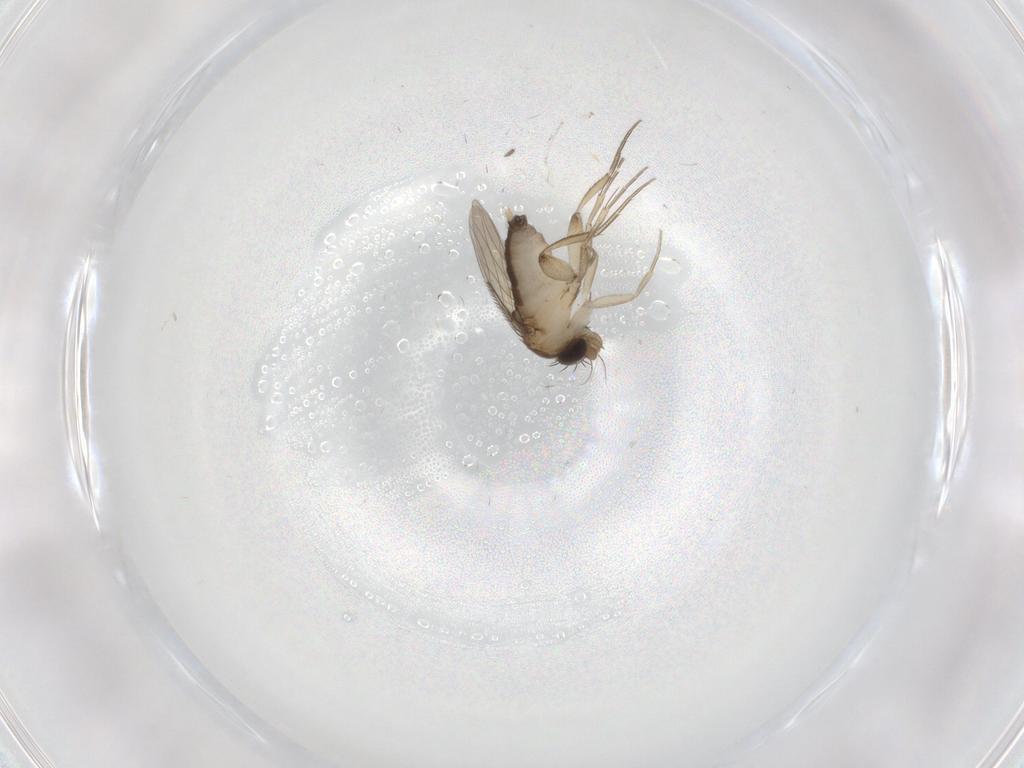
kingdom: Animalia
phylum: Arthropoda
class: Insecta
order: Diptera
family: Phoridae
